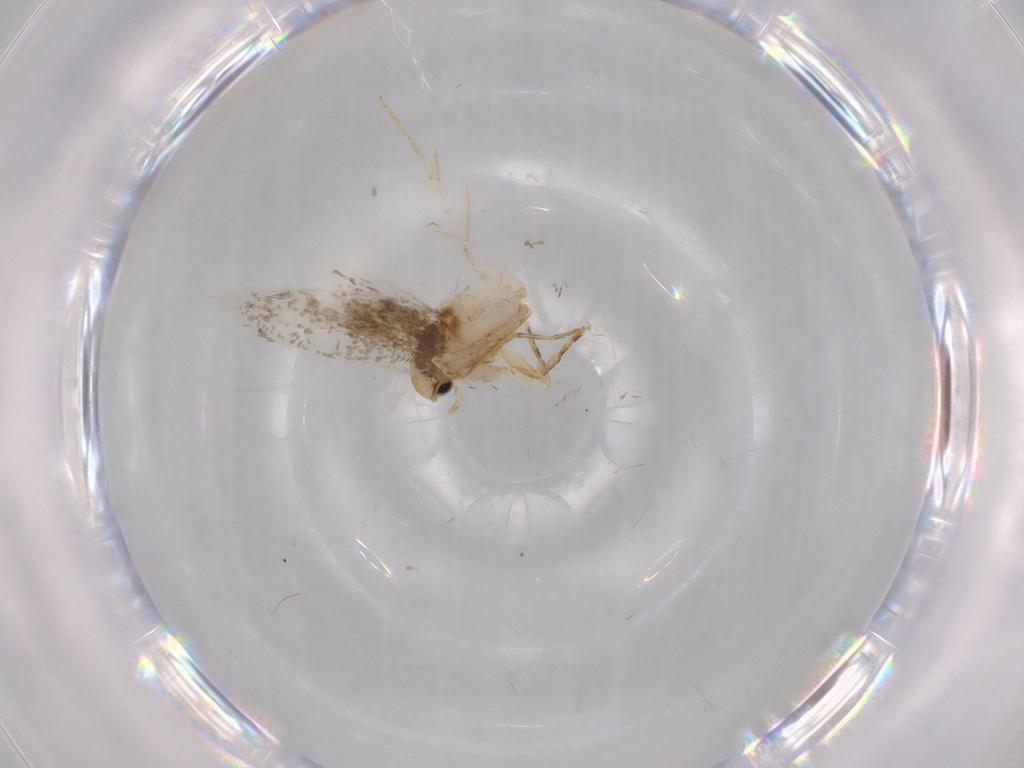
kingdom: Animalia
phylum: Arthropoda
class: Insecta
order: Lepidoptera
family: Tineidae
